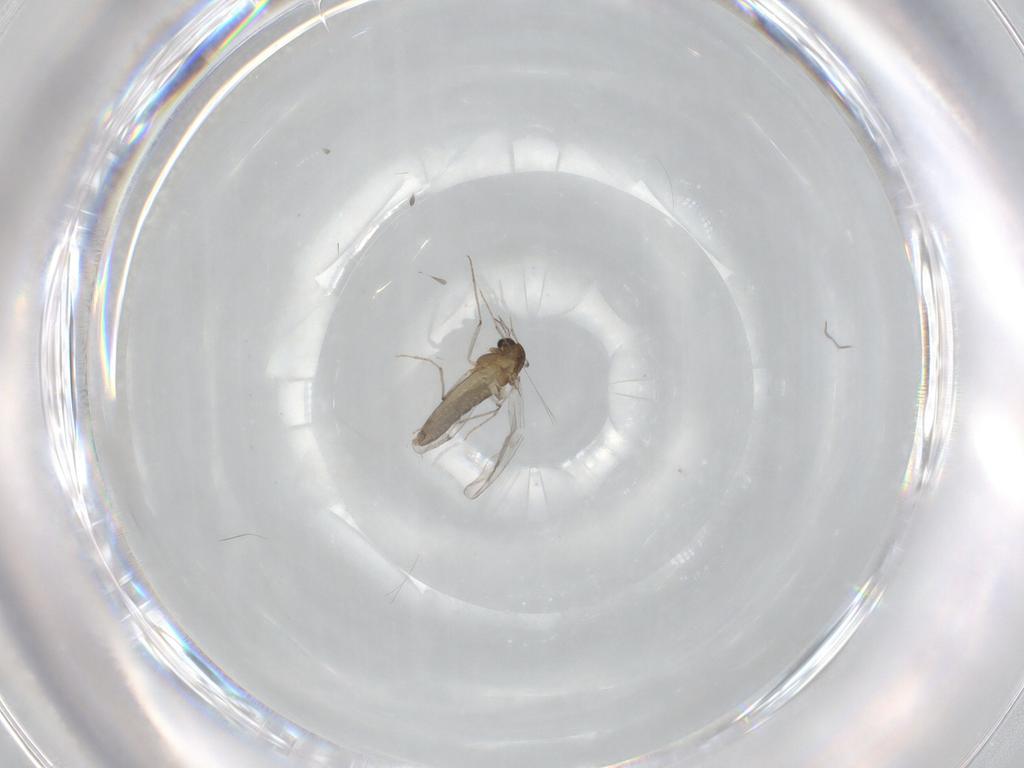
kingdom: Animalia
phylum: Arthropoda
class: Insecta
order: Diptera
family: Chironomidae
